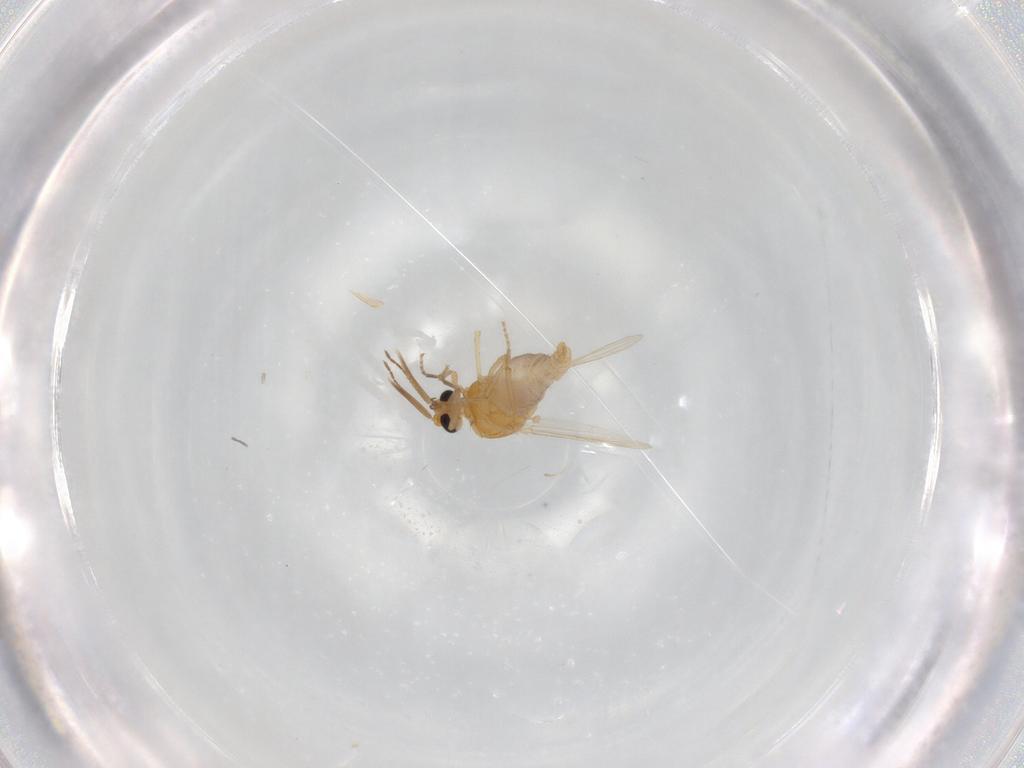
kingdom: Animalia
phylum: Arthropoda
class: Insecta
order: Diptera
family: Ceratopogonidae
